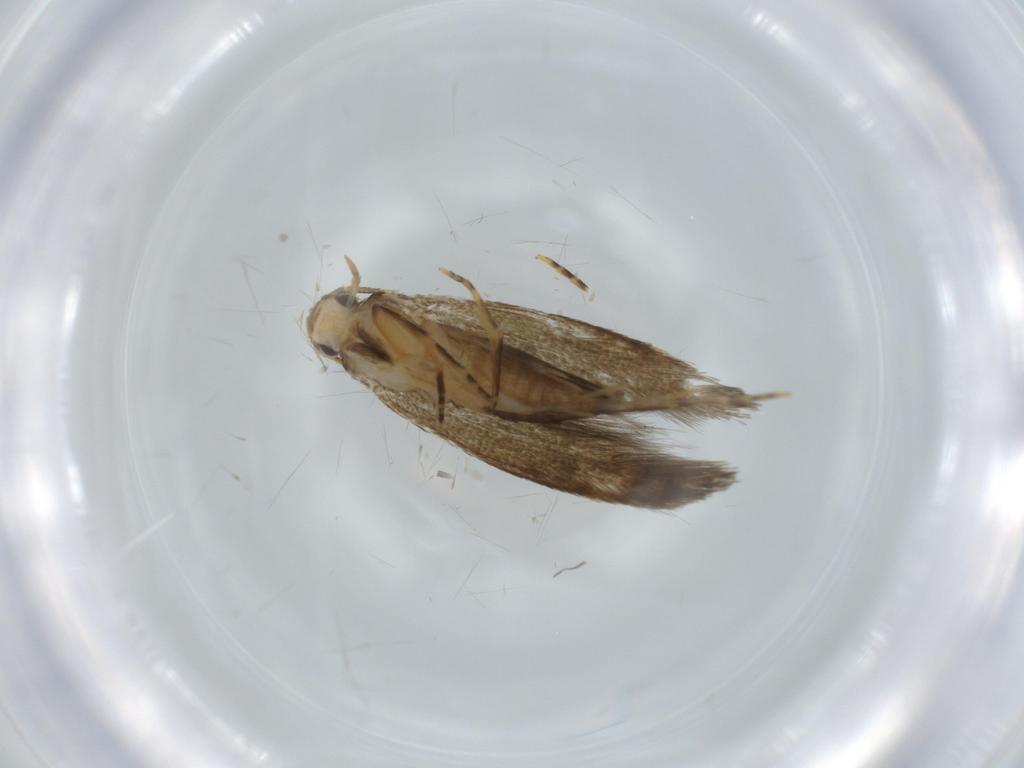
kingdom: Animalia
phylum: Arthropoda
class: Insecta
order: Lepidoptera
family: Tineidae
